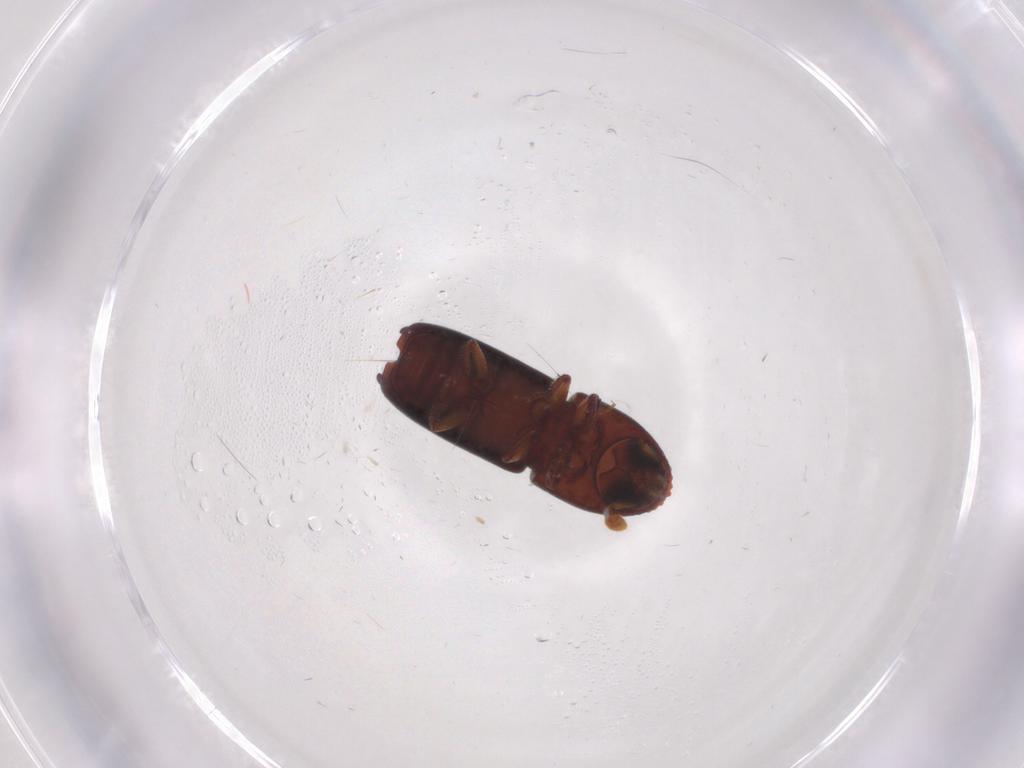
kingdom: Animalia
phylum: Arthropoda
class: Insecta
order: Coleoptera
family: Curculionidae
